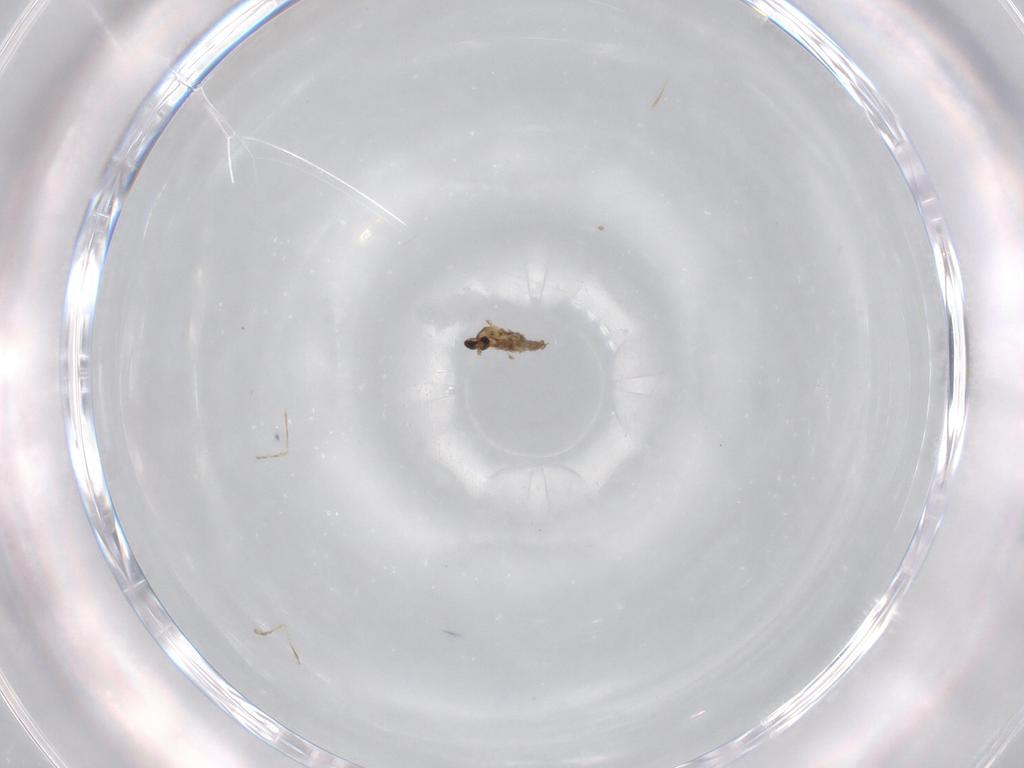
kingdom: Animalia
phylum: Arthropoda
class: Insecta
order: Diptera
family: Cecidomyiidae
